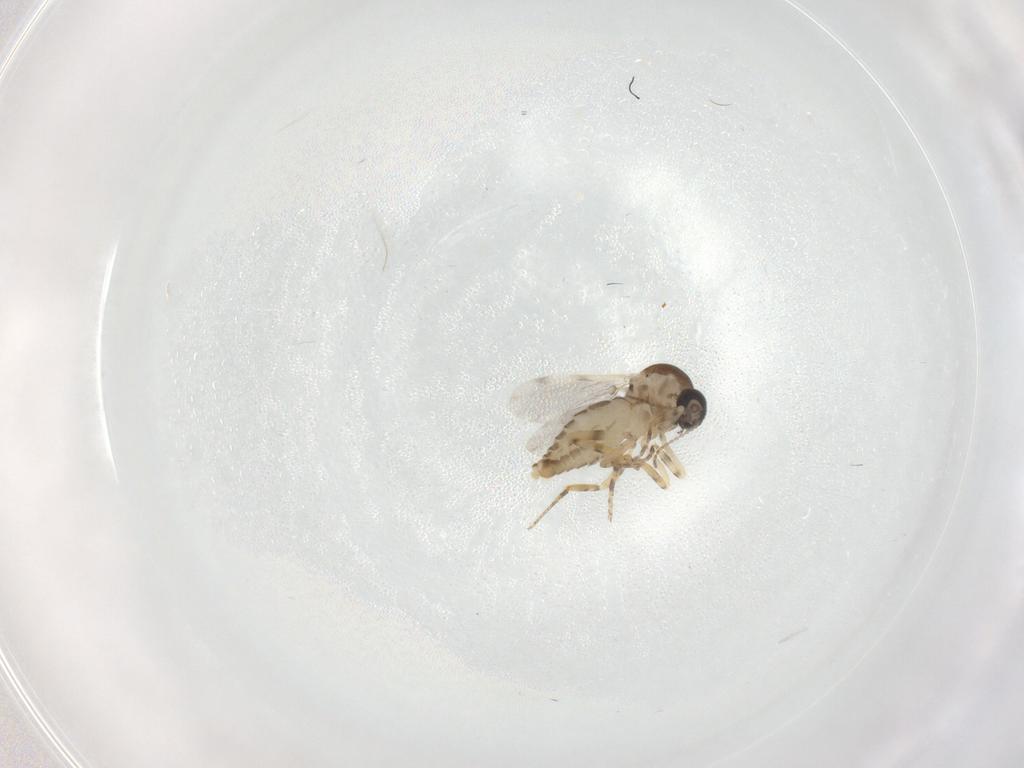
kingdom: Animalia
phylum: Arthropoda
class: Insecta
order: Diptera
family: Ceratopogonidae
